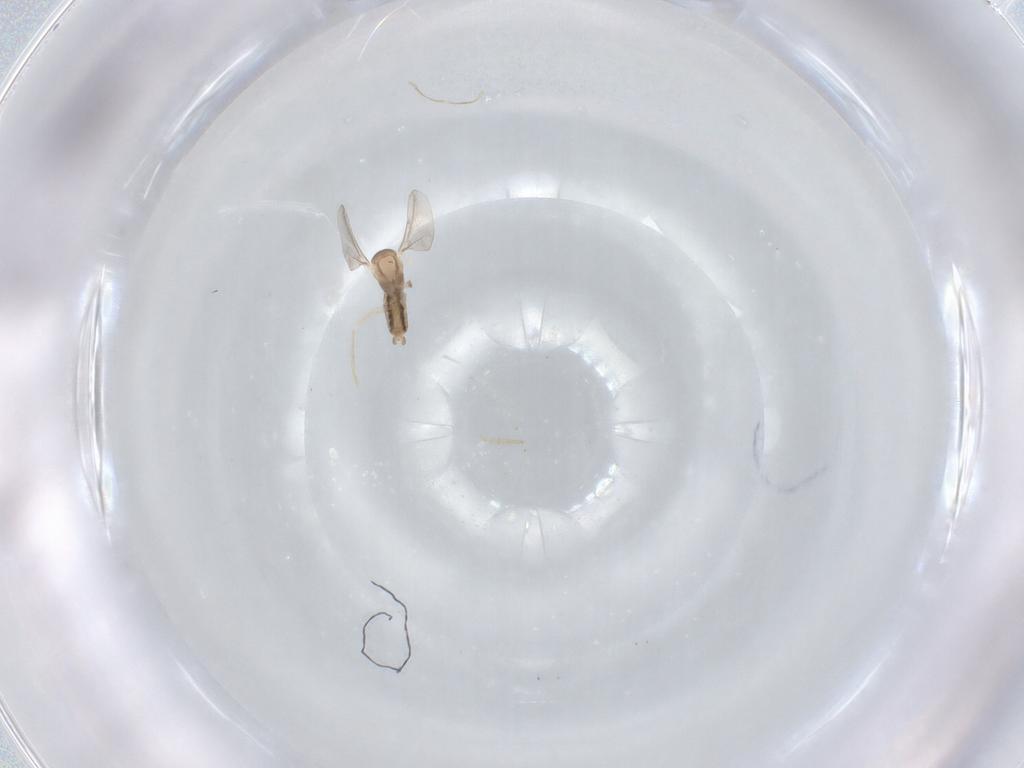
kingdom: Animalia
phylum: Arthropoda
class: Insecta
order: Diptera
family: Cecidomyiidae
